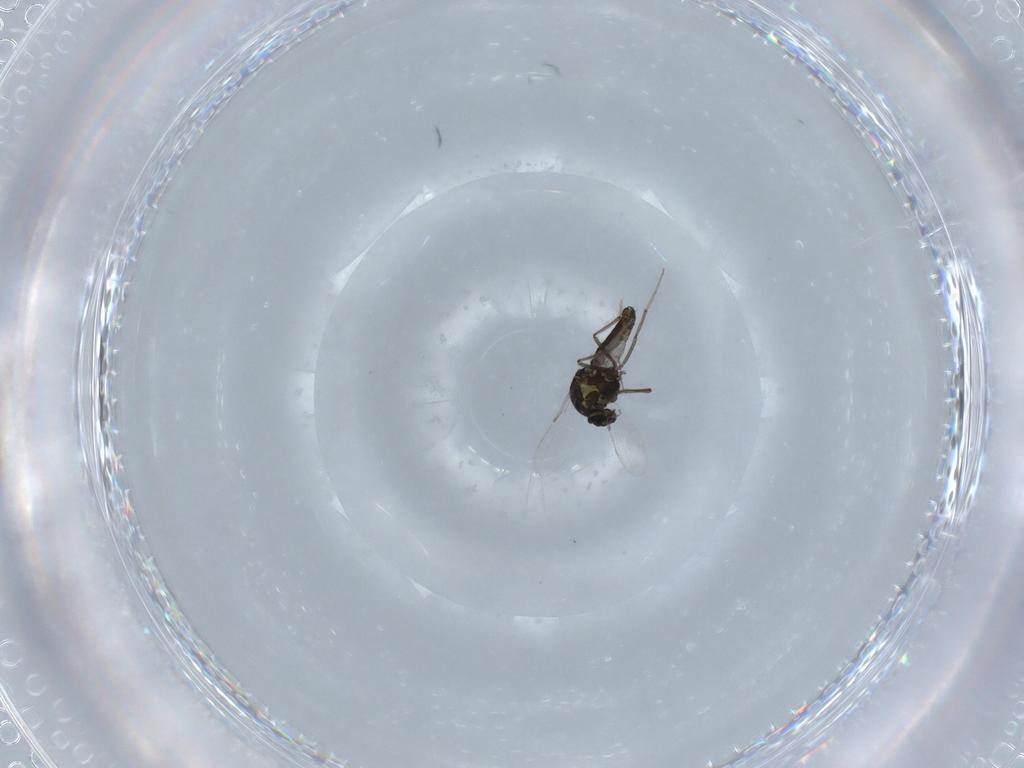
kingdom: Animalia
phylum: Arthropoda
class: Insecta
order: Diptera
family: Ceratopogonidae
